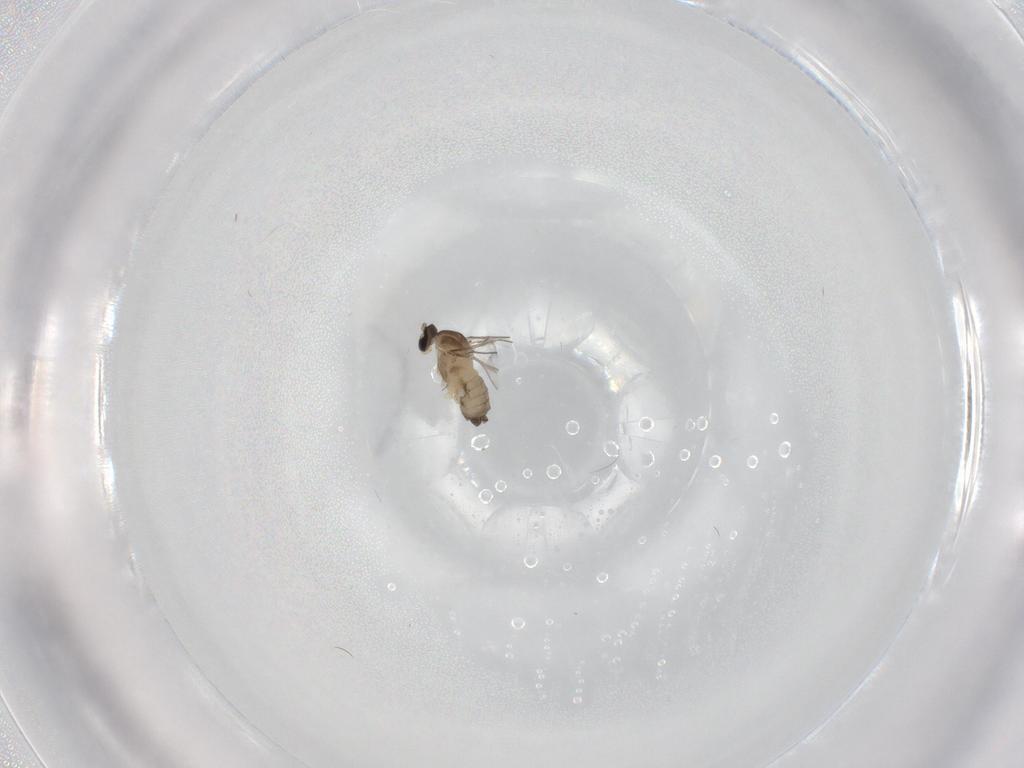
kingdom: Animalia
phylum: Arthropoda
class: Insecta
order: Diptera
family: Cecidomyiidae
